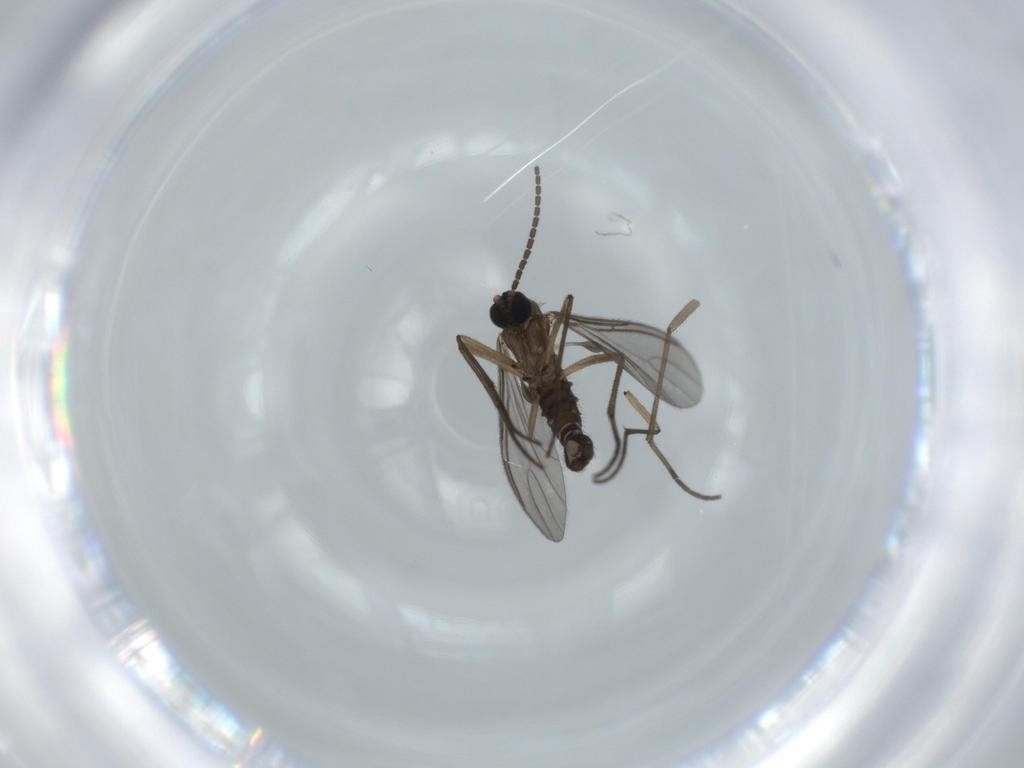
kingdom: Animalia
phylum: Arthropoda
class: Insecta
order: Diptera
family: Sciaridae
